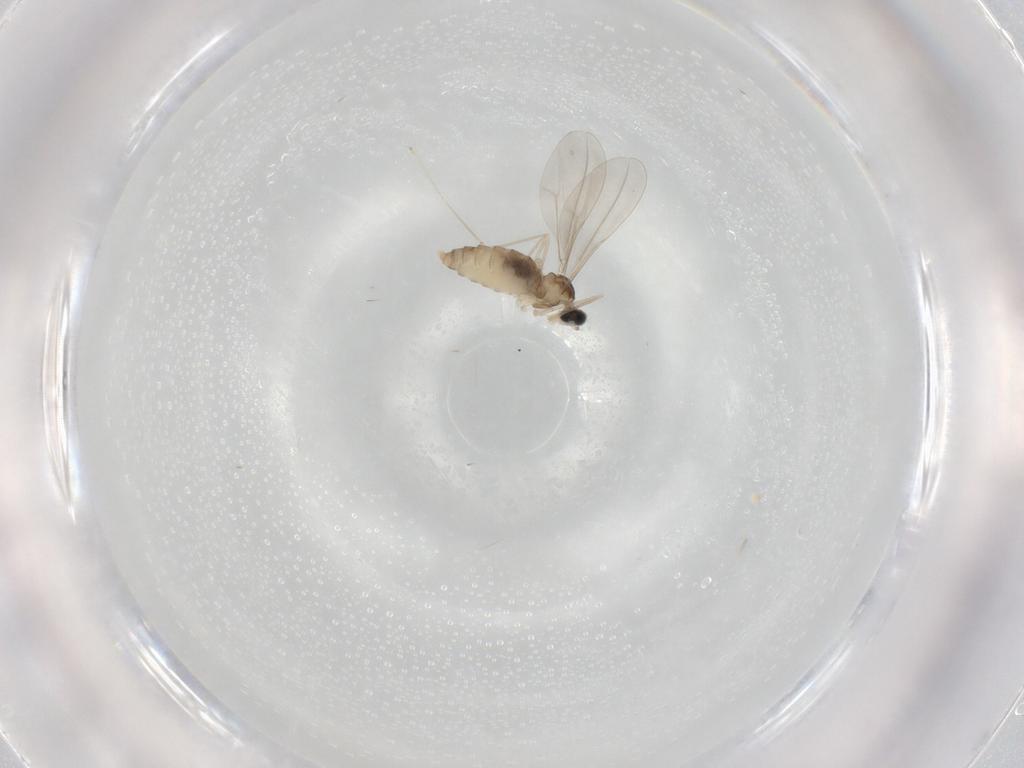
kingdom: Animalia
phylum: Arthropoda
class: Insecta
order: Diptera
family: Cecidomyiidae
